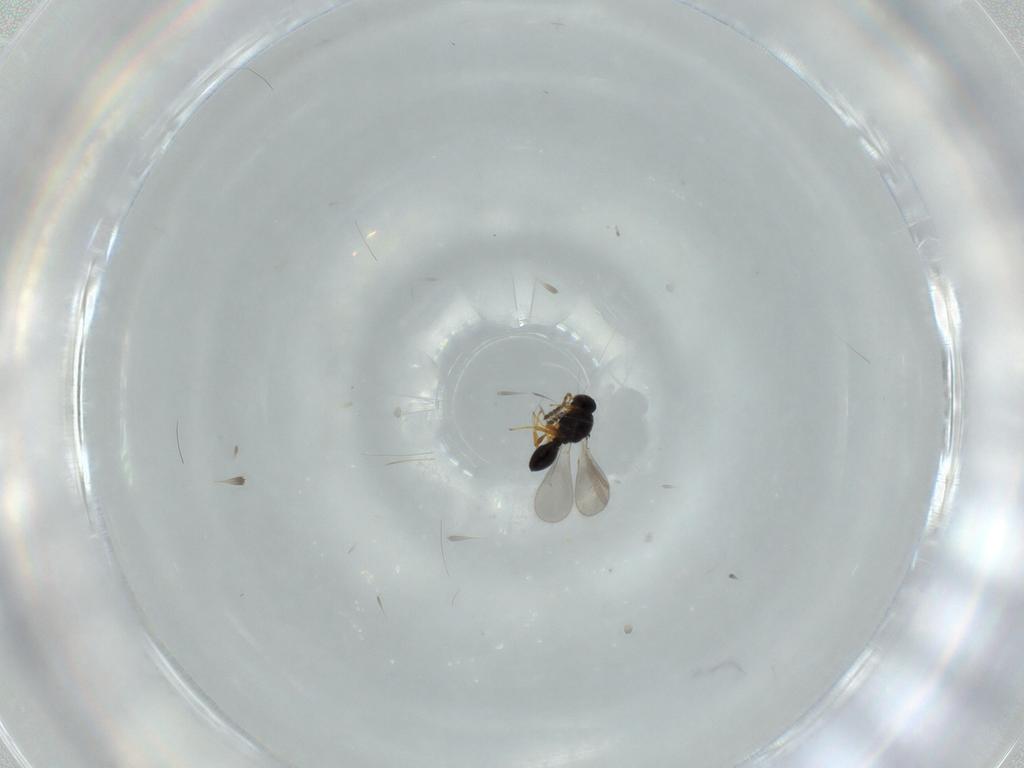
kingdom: Animalia
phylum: Arthropoda
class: Insecta
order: Hymenoptera
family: Platygastridae
